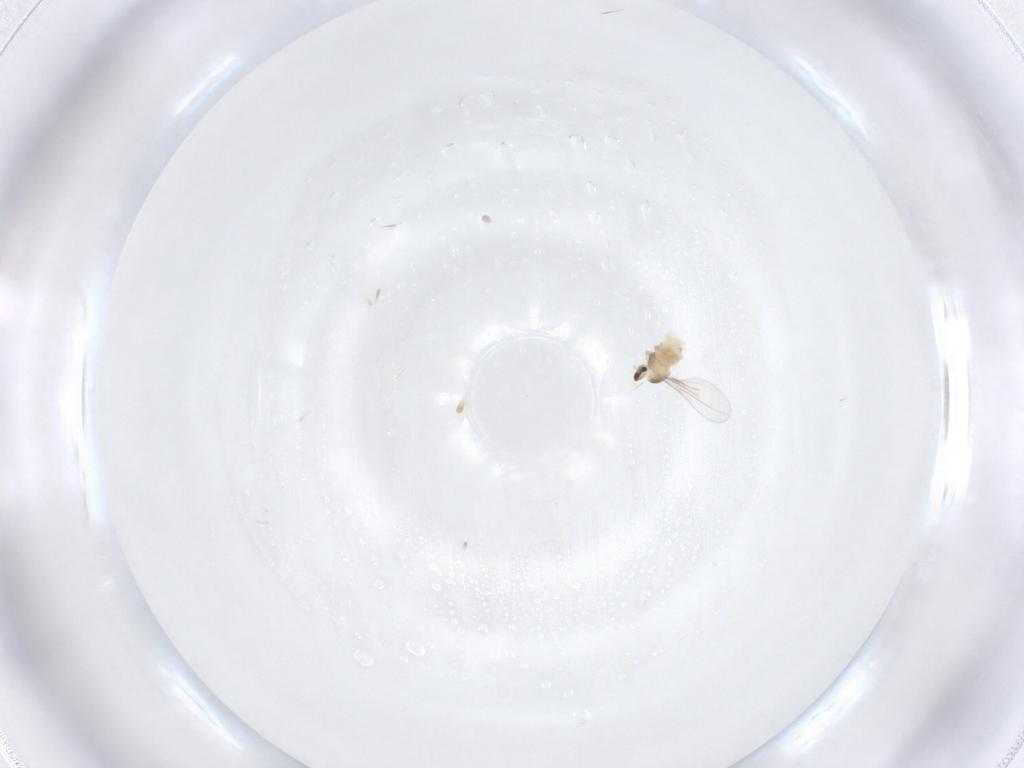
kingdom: Animalia
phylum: Arthropoda
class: Insecta
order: Diptera
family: Cecidomyiidae
